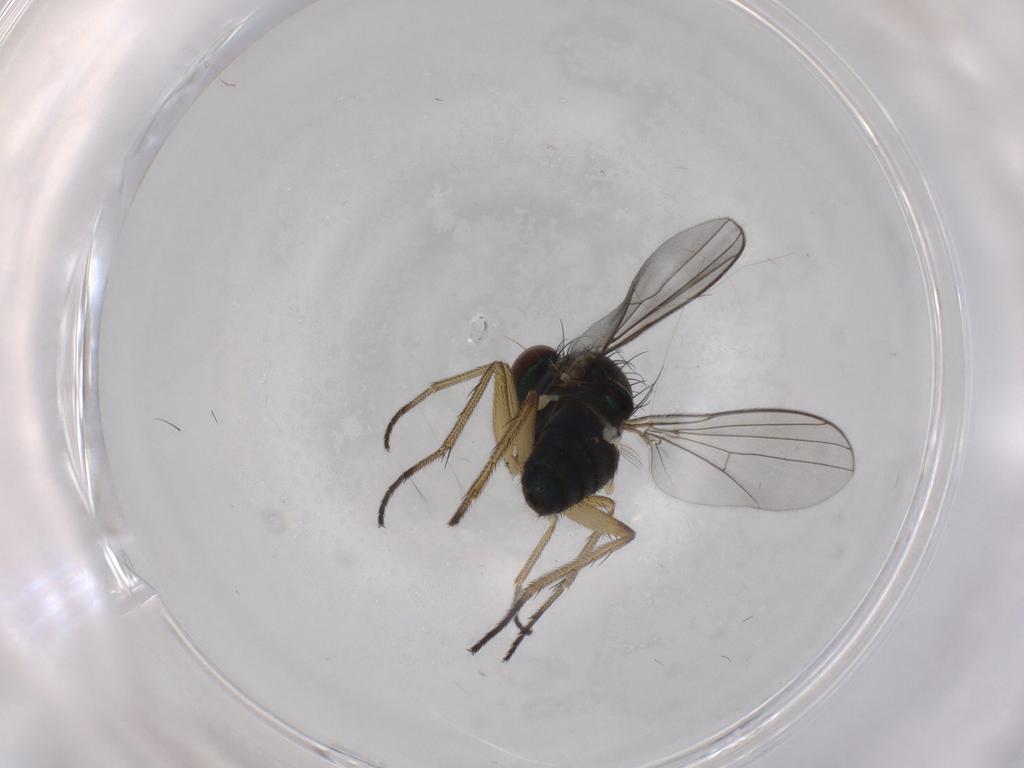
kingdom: Animalia
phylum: Arthropoda
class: Insecta
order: Diptera
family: Dolichopodidae
